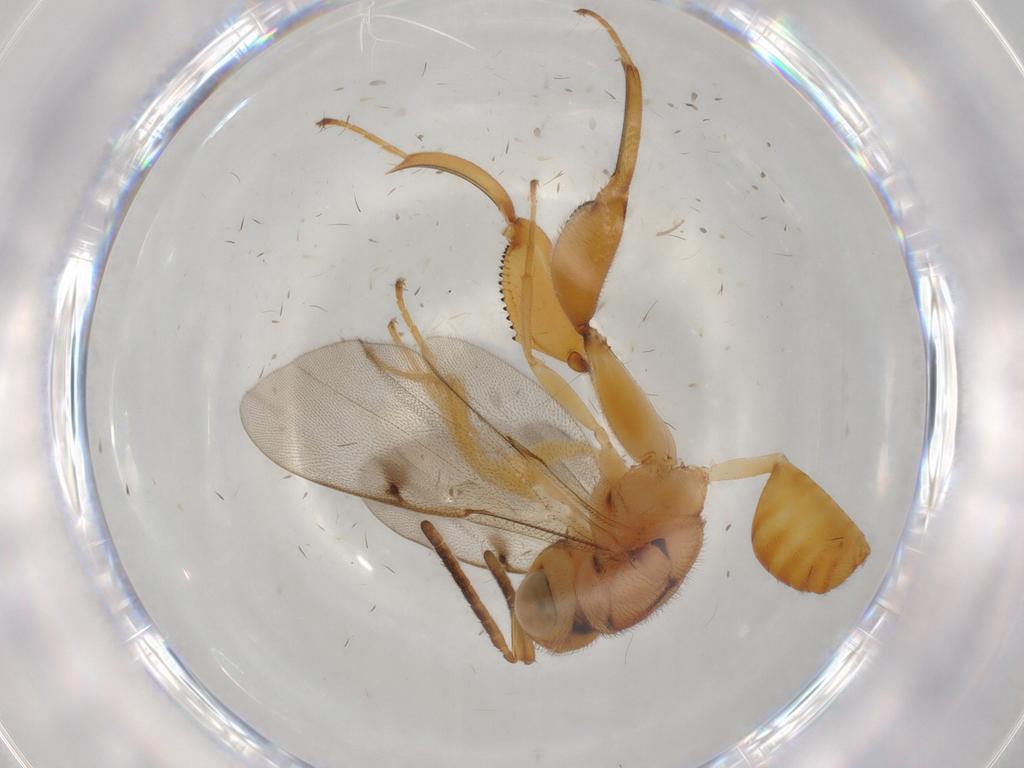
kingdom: Animalia
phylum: Arthropoda
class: Insecta
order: Hymenoptera
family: Chalcididae
